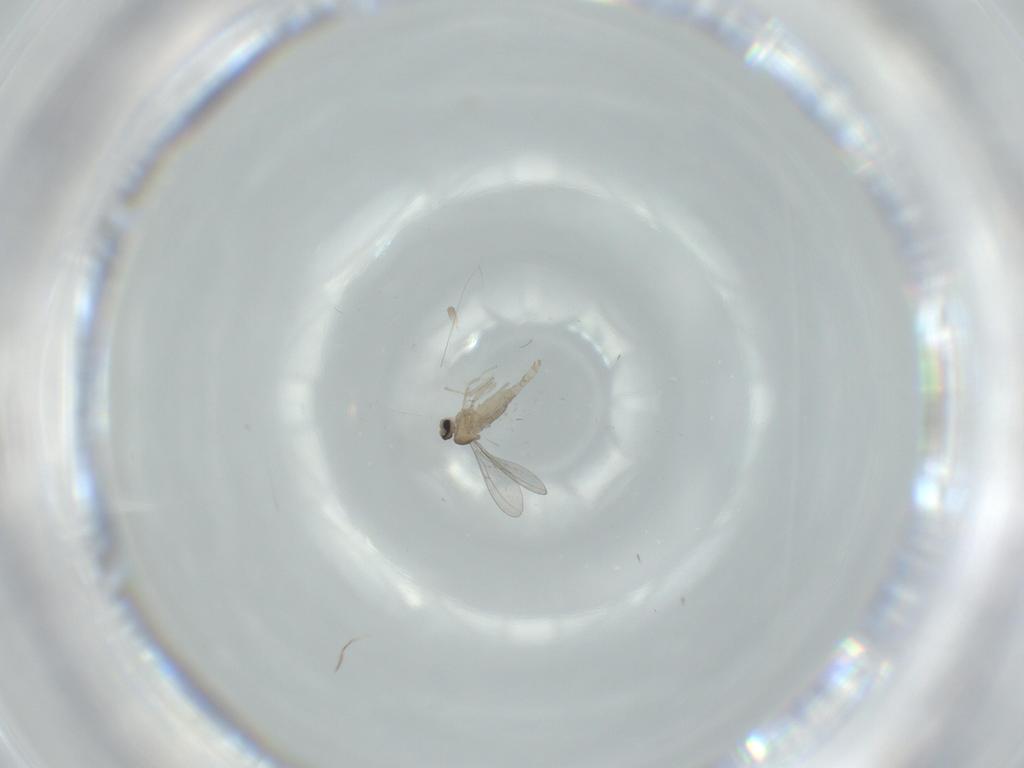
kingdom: Animalia
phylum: Arthropoda
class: Insecta
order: Diptera
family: Cecidomyiidae
